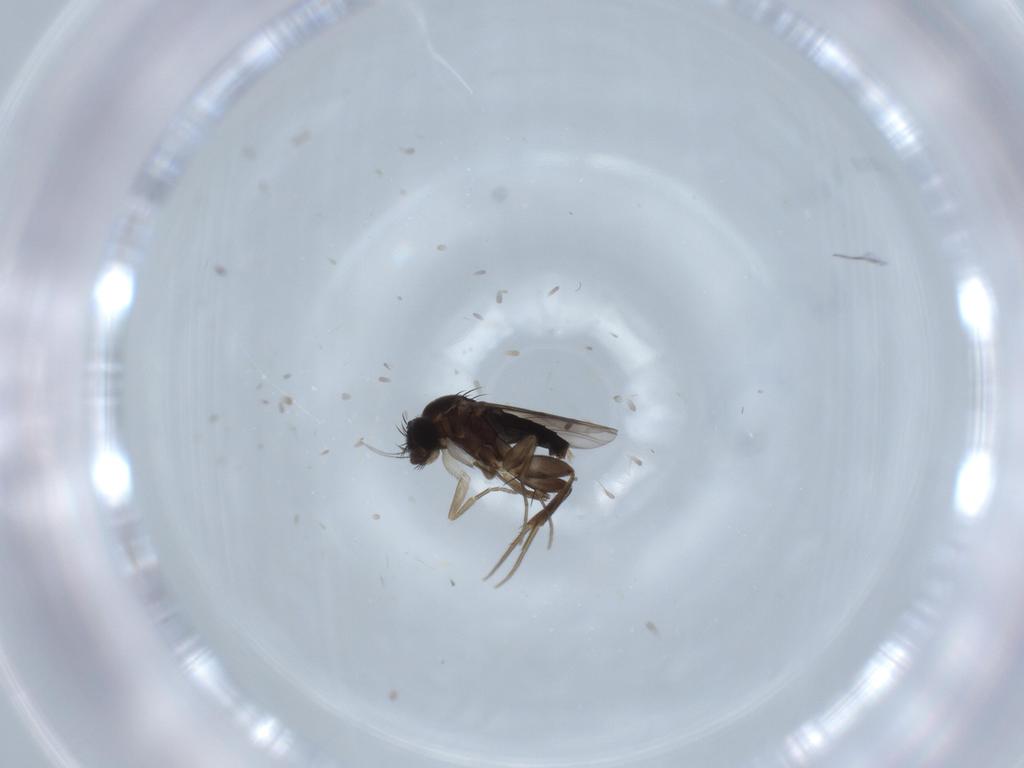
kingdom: Animalia
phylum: Arthropoda
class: Insecta
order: Diptera
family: Phoridae
